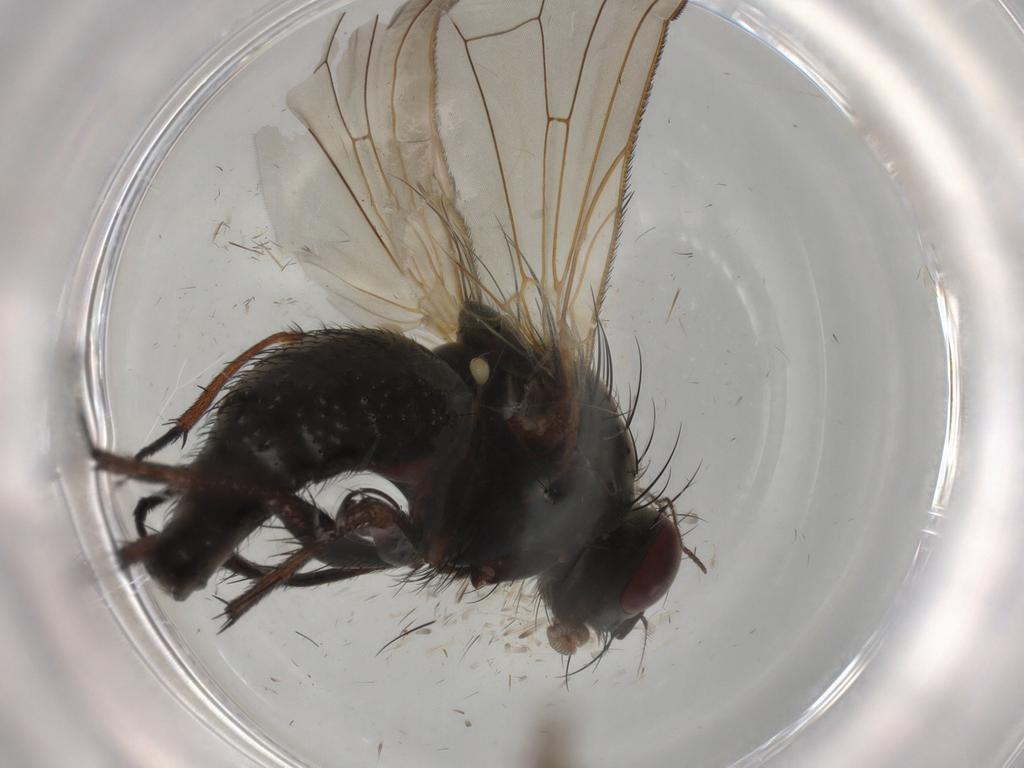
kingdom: Animalia
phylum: Arthropoda
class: Insecta
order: Diptera
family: Anthomyiidae
